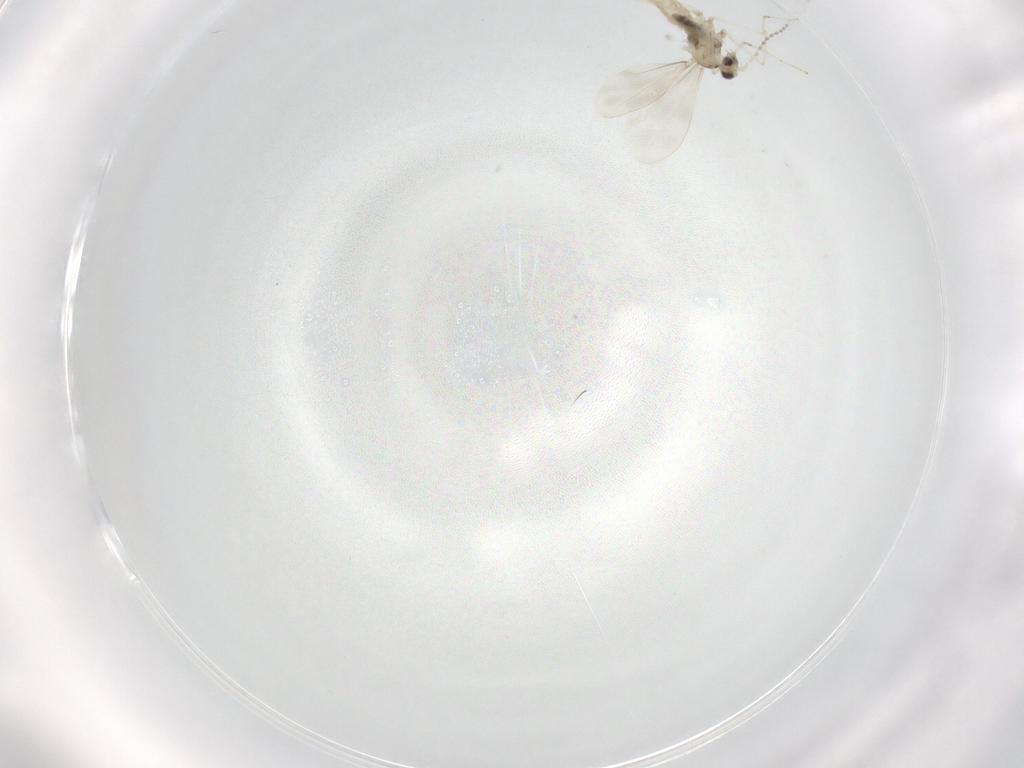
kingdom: Animalia
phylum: Arthropoda
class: Insecta
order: Diptera
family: Cecidomyiidae
